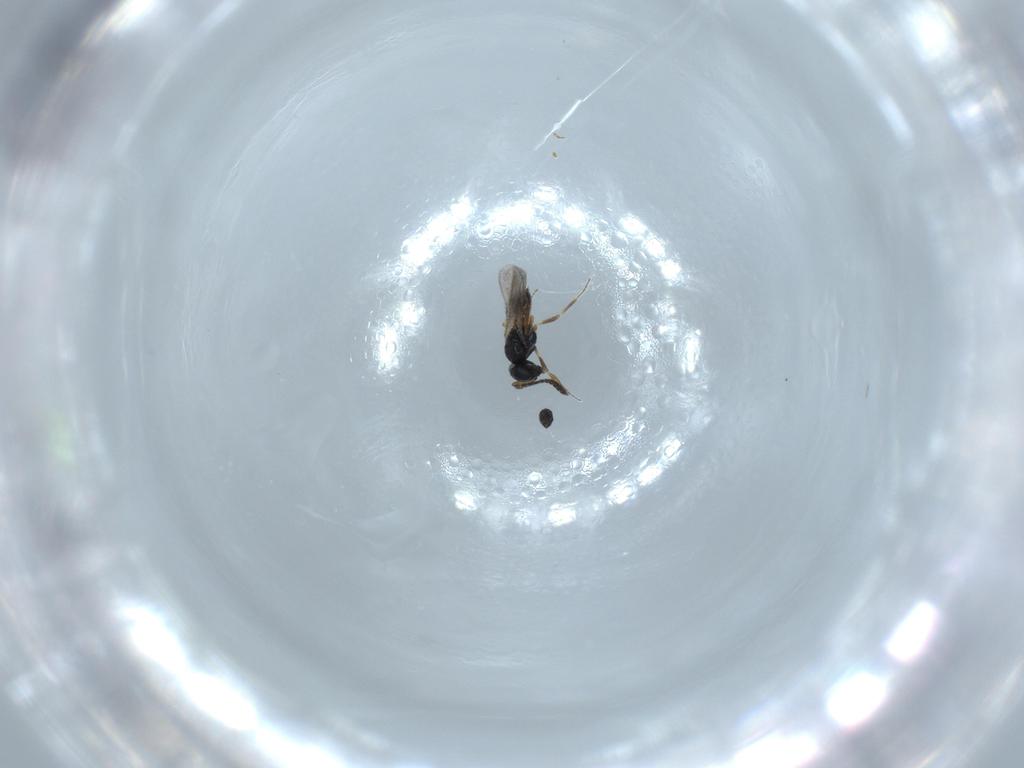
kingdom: Animalia
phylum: Arthropoda
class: Insecta
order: Hymenoptera
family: Scelionidae
